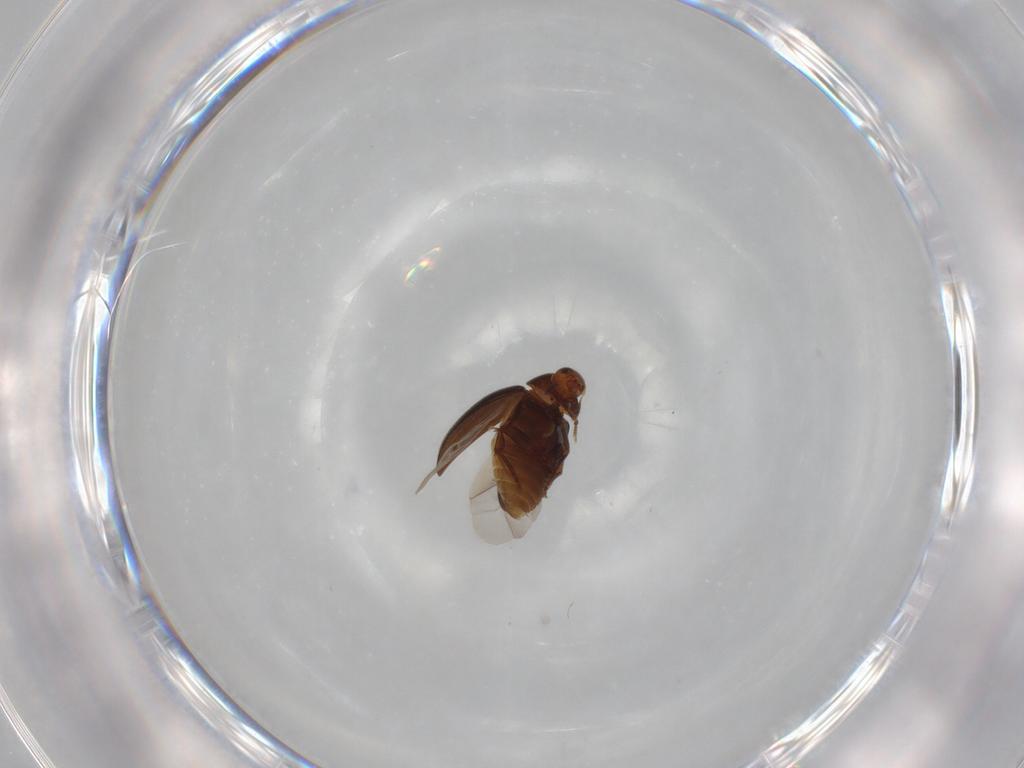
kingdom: Animalia
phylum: Arthropoda
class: Insecta
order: Coleoptera
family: Melandryidae
